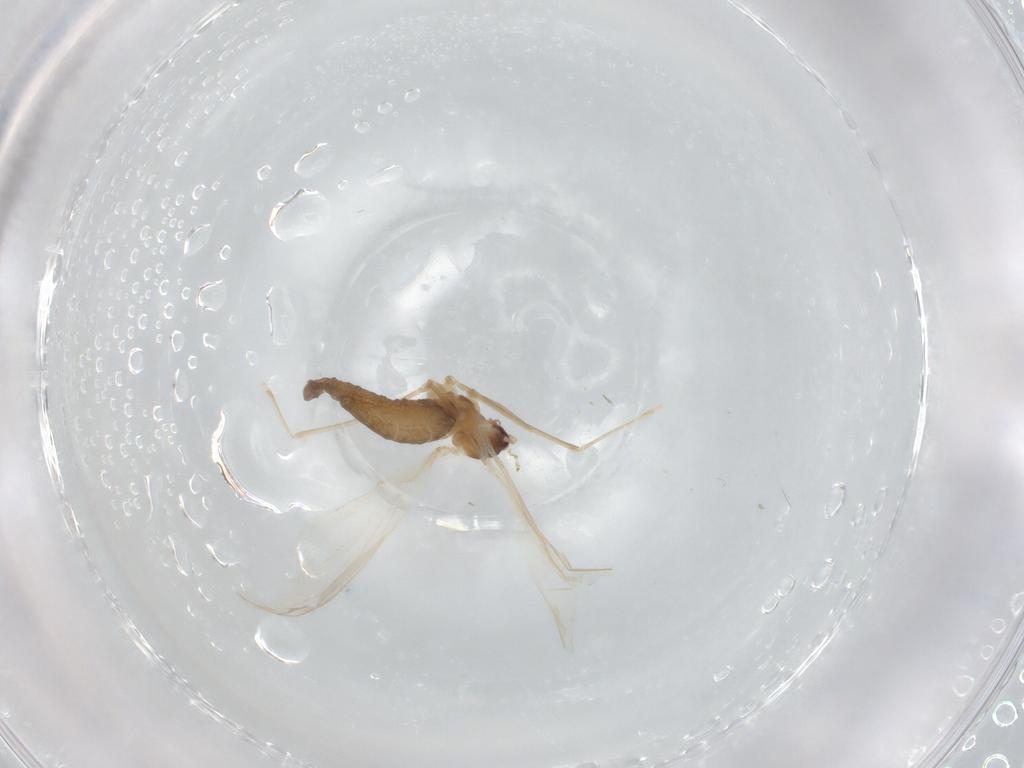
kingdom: Animalia
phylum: Arthropoda
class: Insecta
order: Diptera
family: Cecidomyiidae
